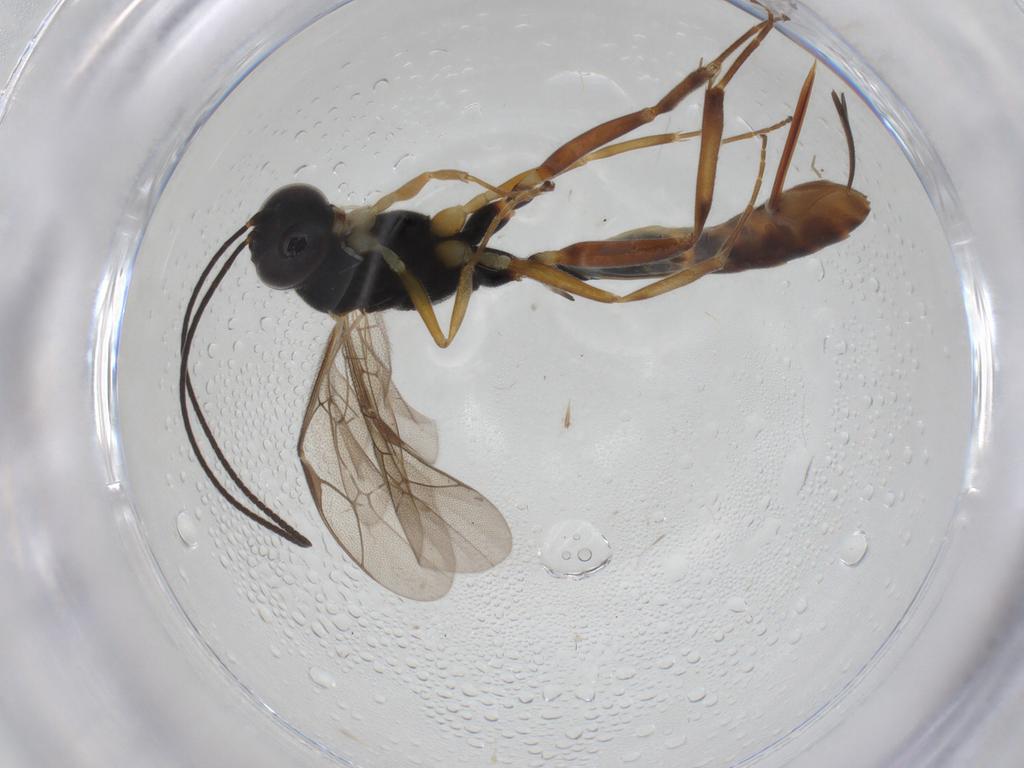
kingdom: Animalia
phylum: Arthropoda
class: Insecta
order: Hymenoptera
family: Ichneumonidae
